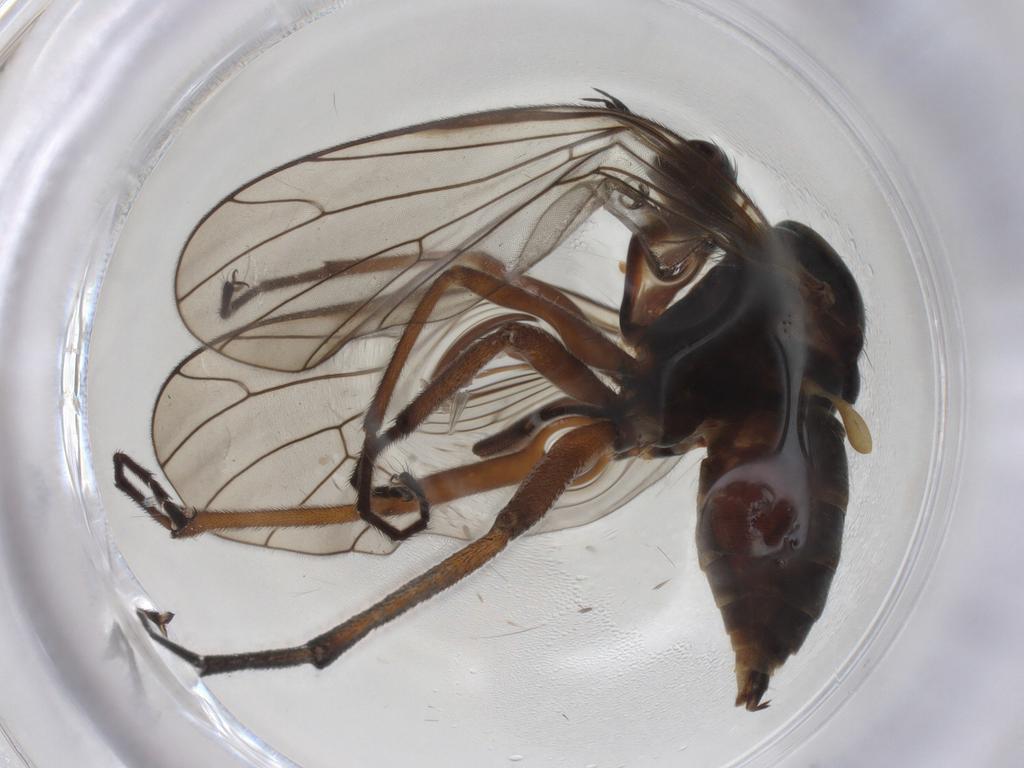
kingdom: Animalia
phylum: Arthropoda
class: Insecta
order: Diptera
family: Empididae
